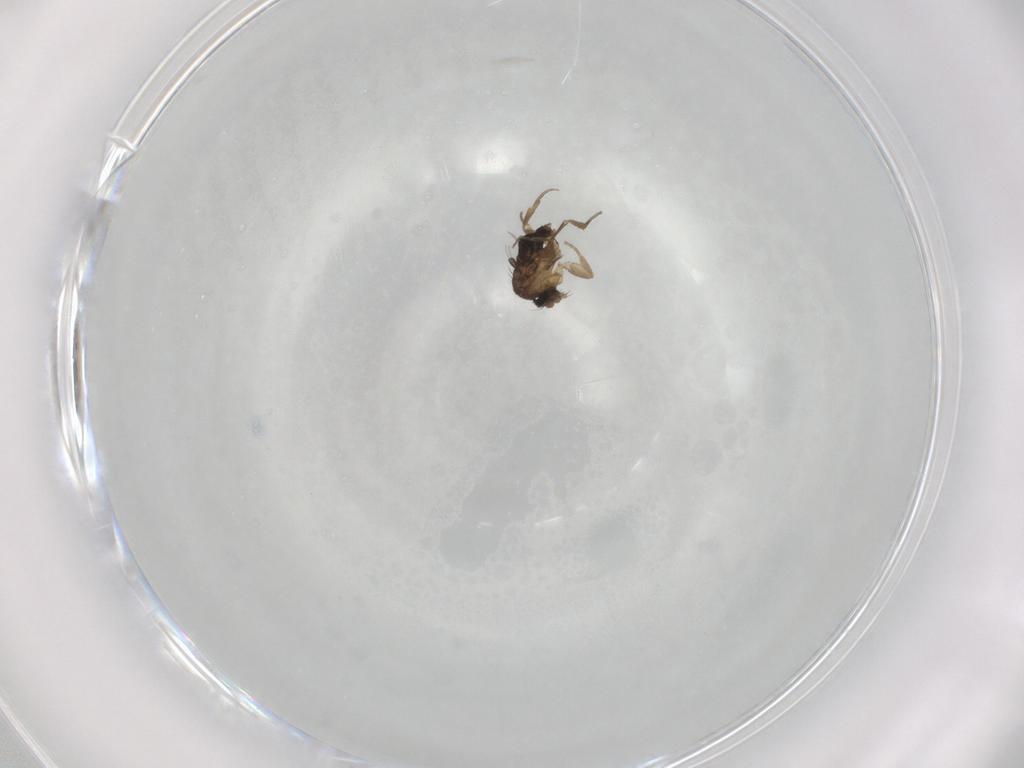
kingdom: Animalia
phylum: Arthropoda
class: Insecta
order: Diptera
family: Phoridae
